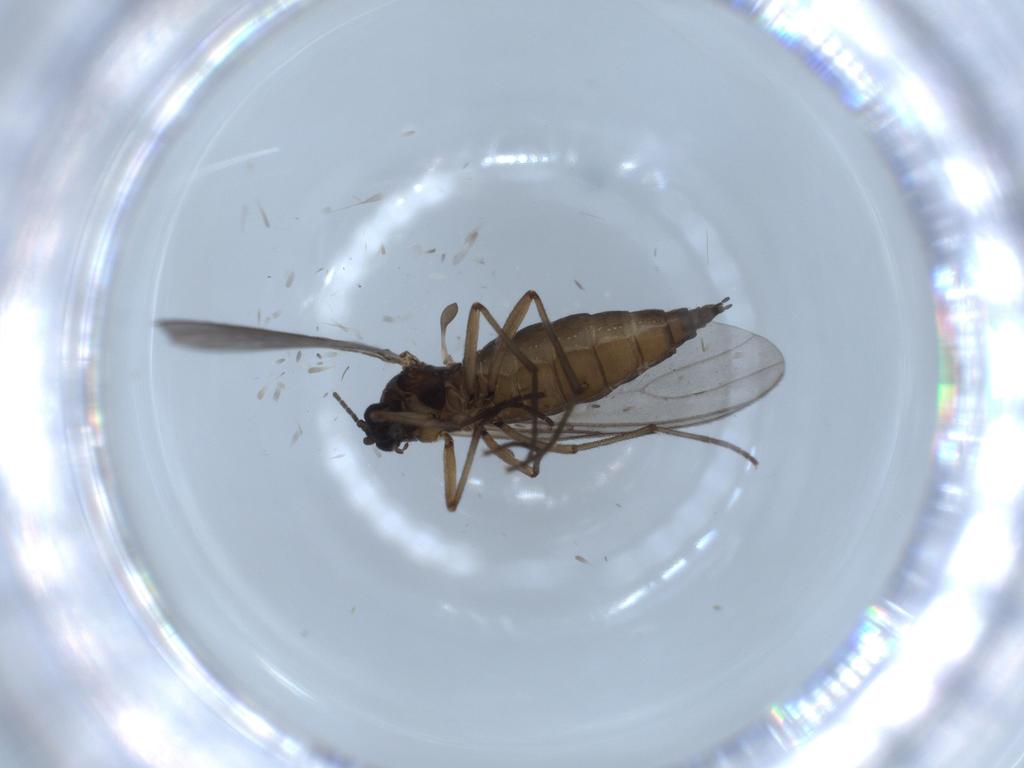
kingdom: Animalia
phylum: Arthropoda
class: Insecta
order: Diptera
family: Sciaridae
